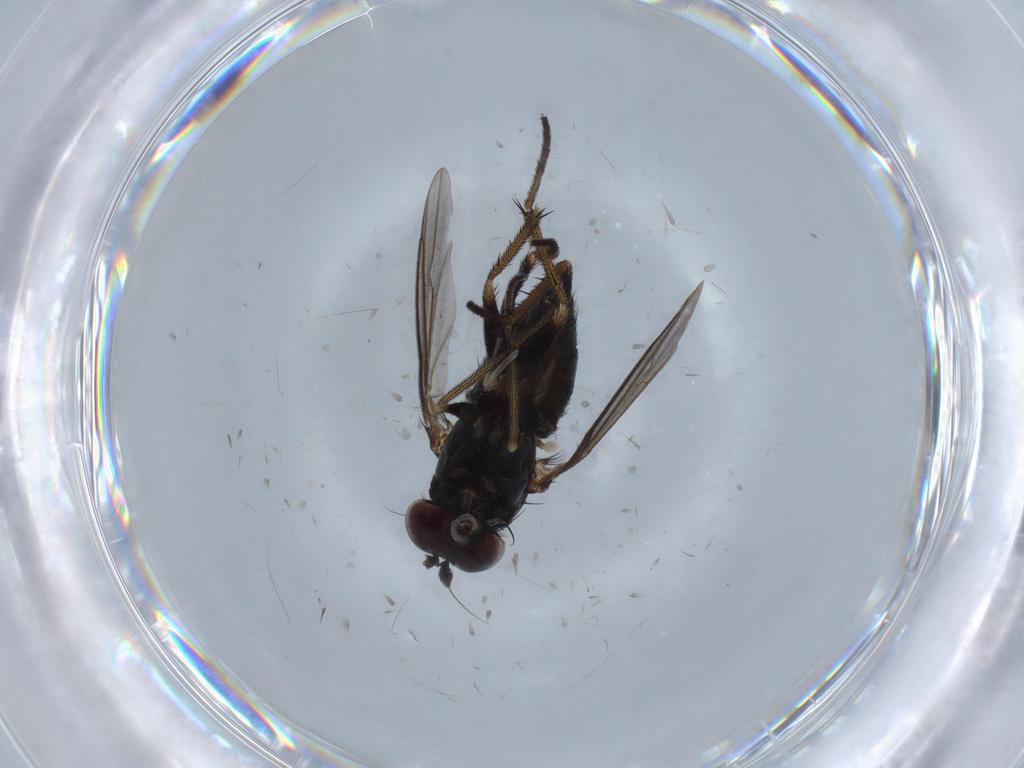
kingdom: Animalia
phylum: Arthropoda
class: Insecta
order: Diptera
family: Dolichopodidae
